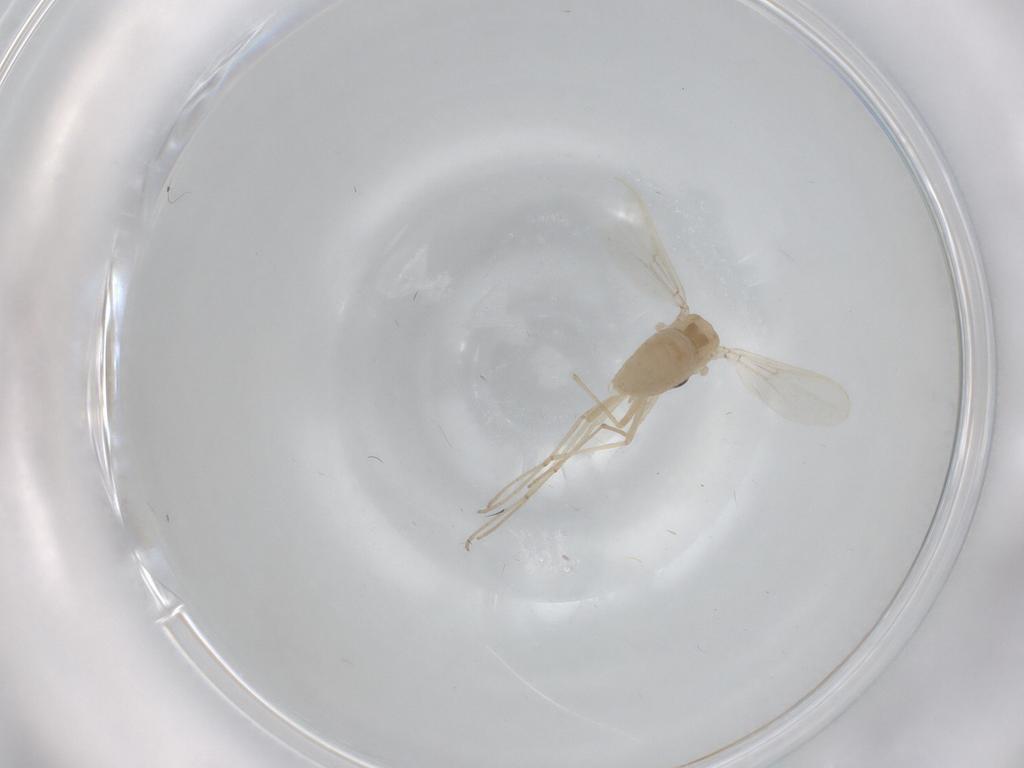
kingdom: Animalia
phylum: Arthropoda
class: Insecta
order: Diptera
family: Chironomidae
